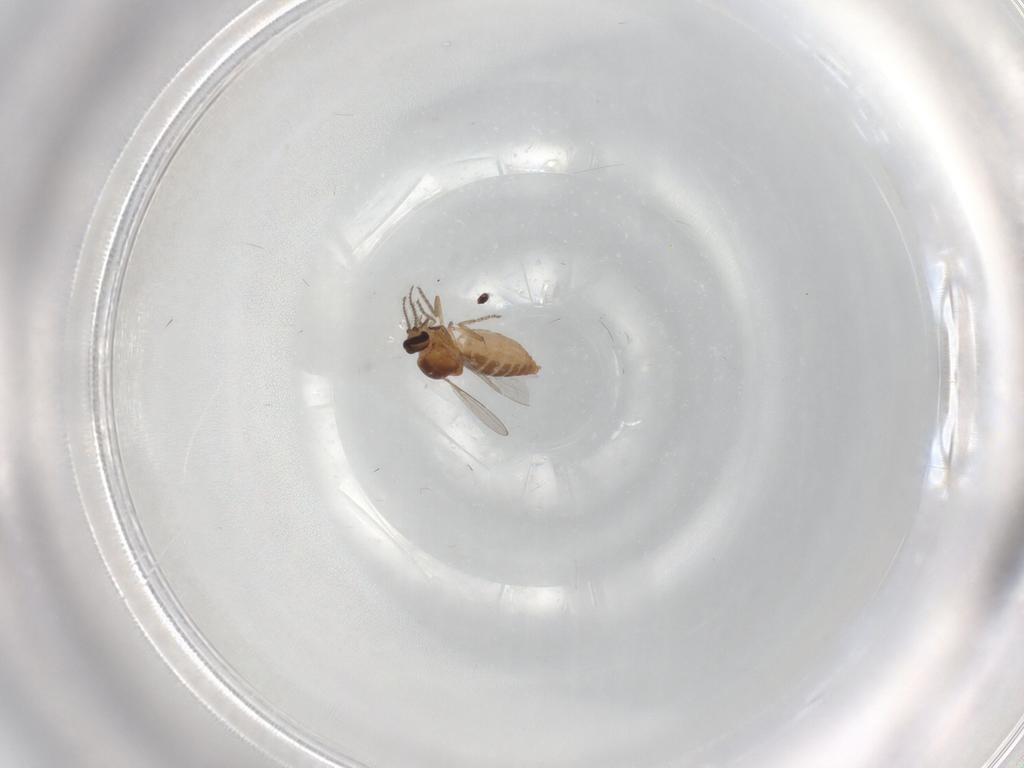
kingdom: Animalia
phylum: Arthropoda
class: Insecta
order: Diptera
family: Ceratopogonidae
